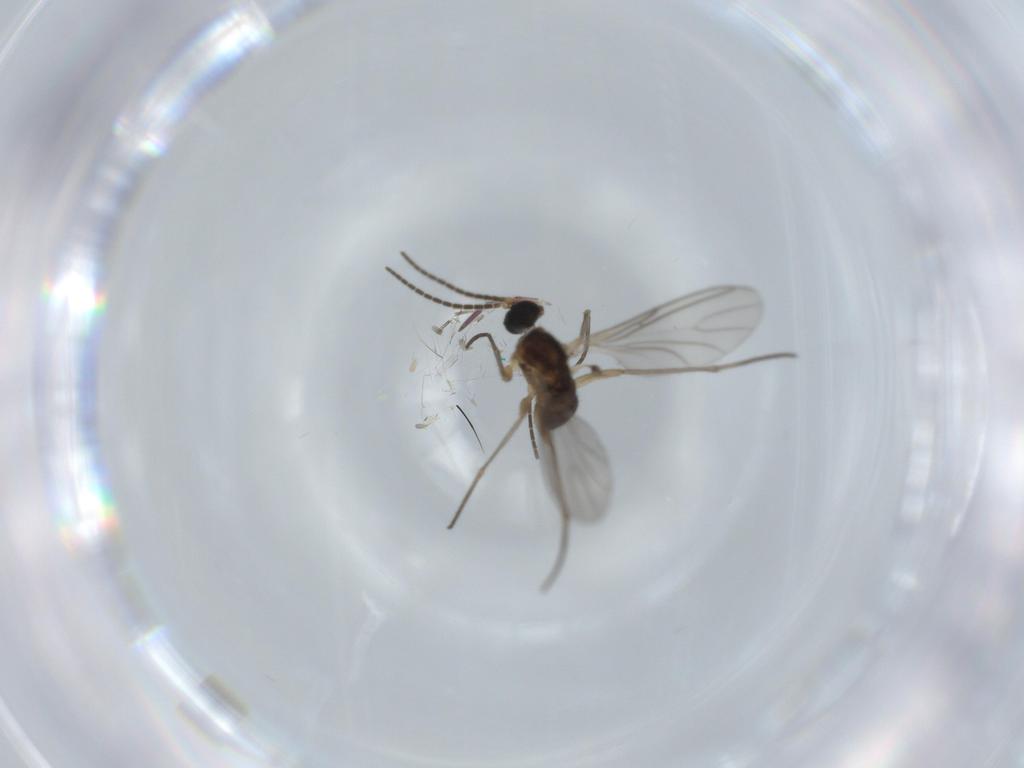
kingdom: Animalia
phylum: Arthropoda
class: Insecta
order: Diptera
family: Sciaridae
